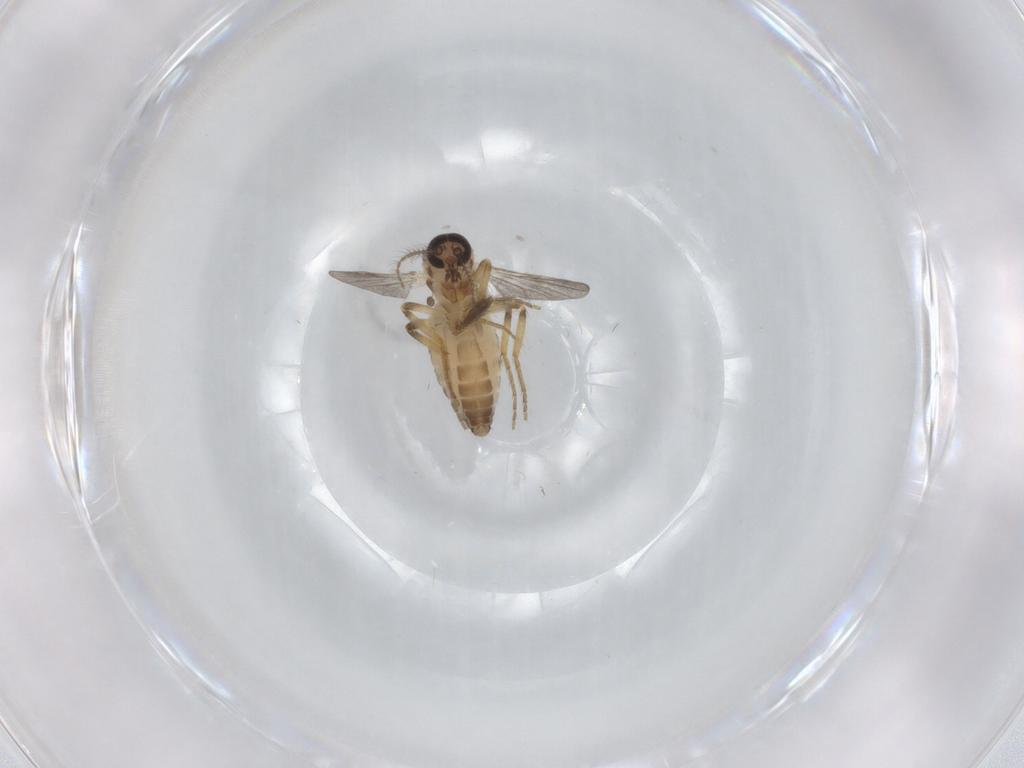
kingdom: Animalia
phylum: Arthropoda
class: Insecta
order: Diptera
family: Ceratopogonidae
